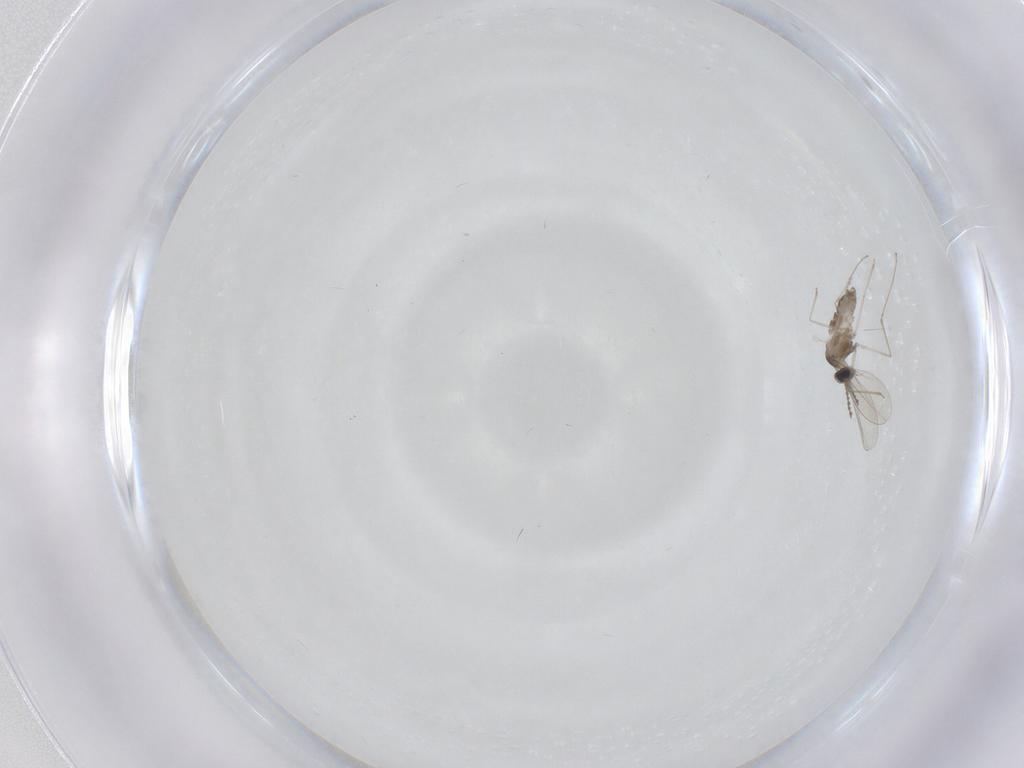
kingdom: Animalia
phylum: Arthropoda
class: Insecta
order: Diptera
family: Cecidomyiidae
